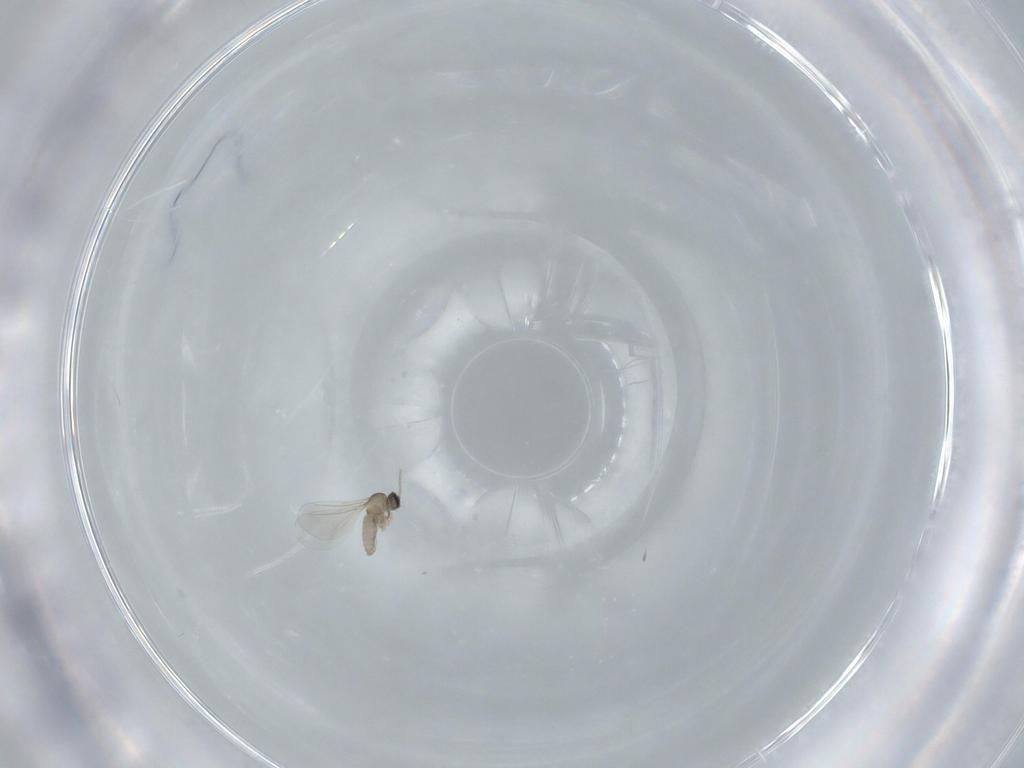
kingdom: Animalia
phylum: Arthropoda
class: Insecta
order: Diptera
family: Cecidomyiidae
